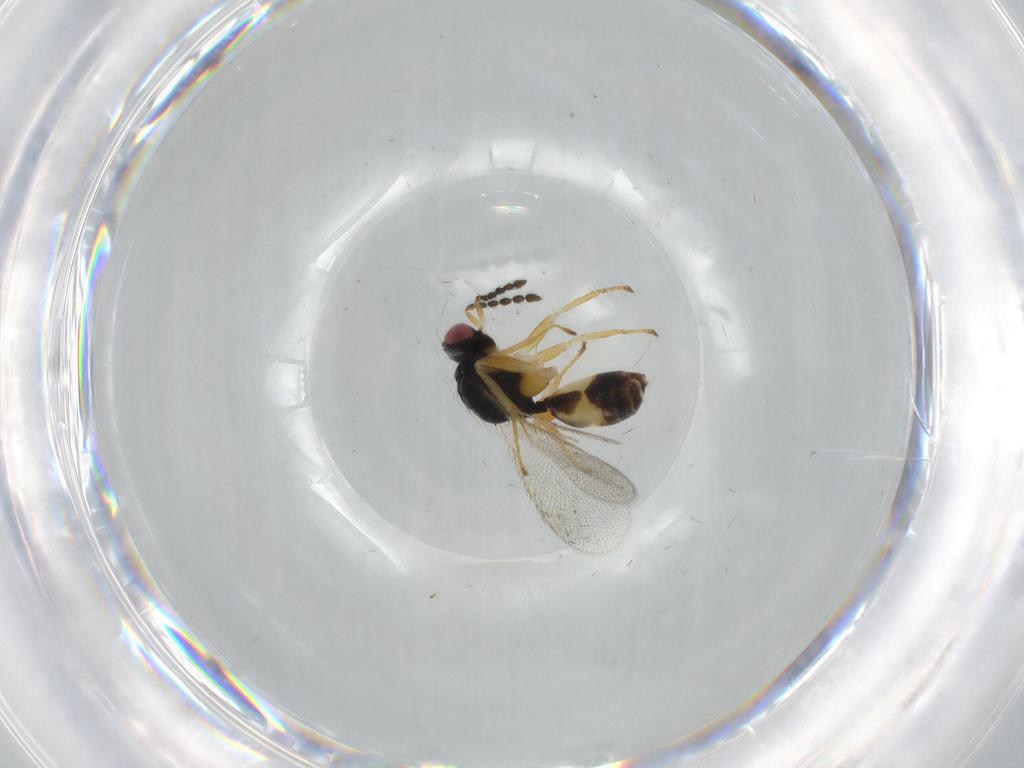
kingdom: Animalia
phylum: Arthropoda
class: Insecta
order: Hymenoptera
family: Eulophidae
